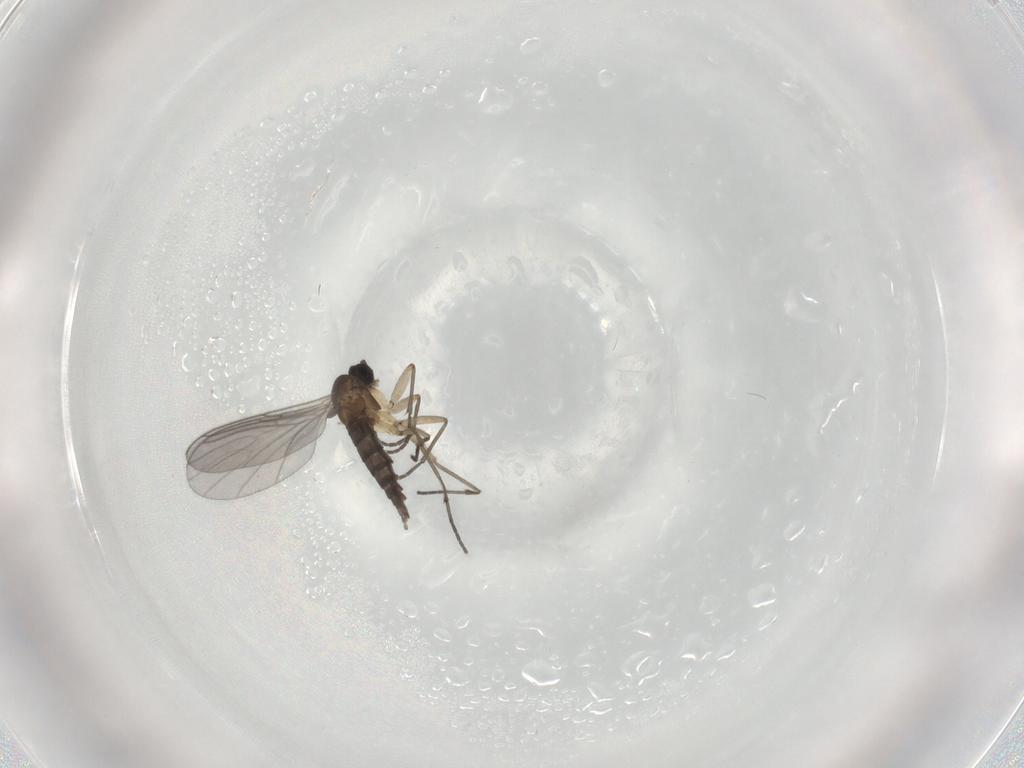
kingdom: Animalia
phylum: Arthropoda
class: Insecta
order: Diptera
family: Sciaridae
